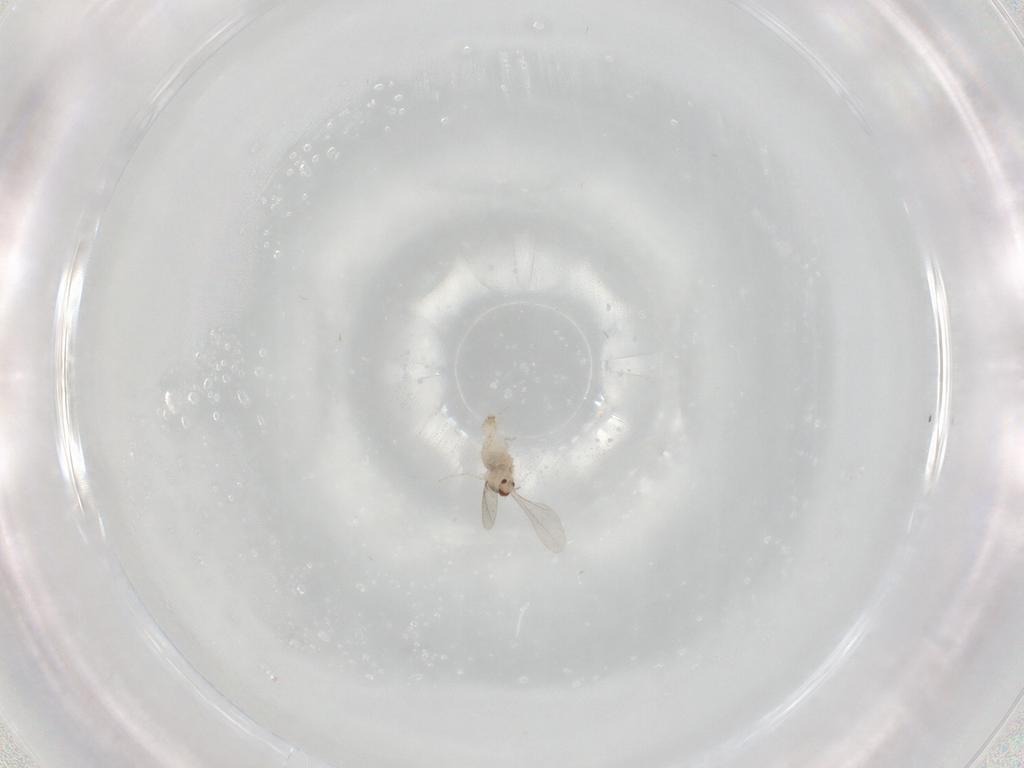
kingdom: Animalia
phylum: Arthropoda
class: Insecta
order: Diptera
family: Cecidomyiidae
